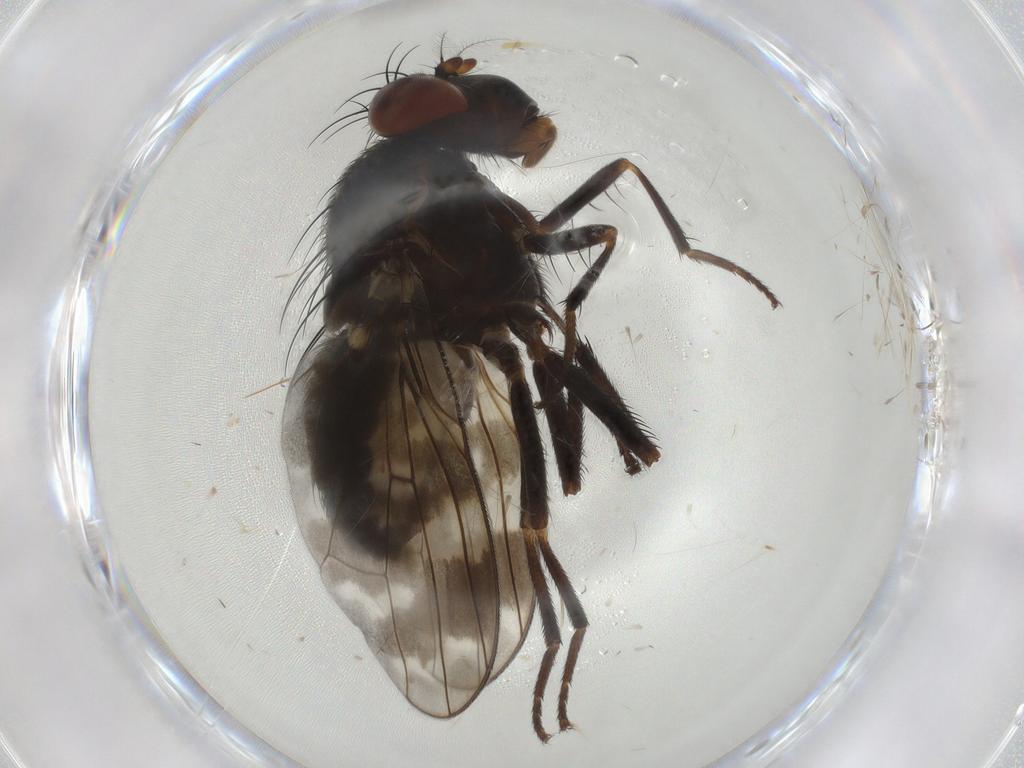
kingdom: Animalia
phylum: Arthropoda
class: Insecta
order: Diptera
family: Cecidomyiidae
